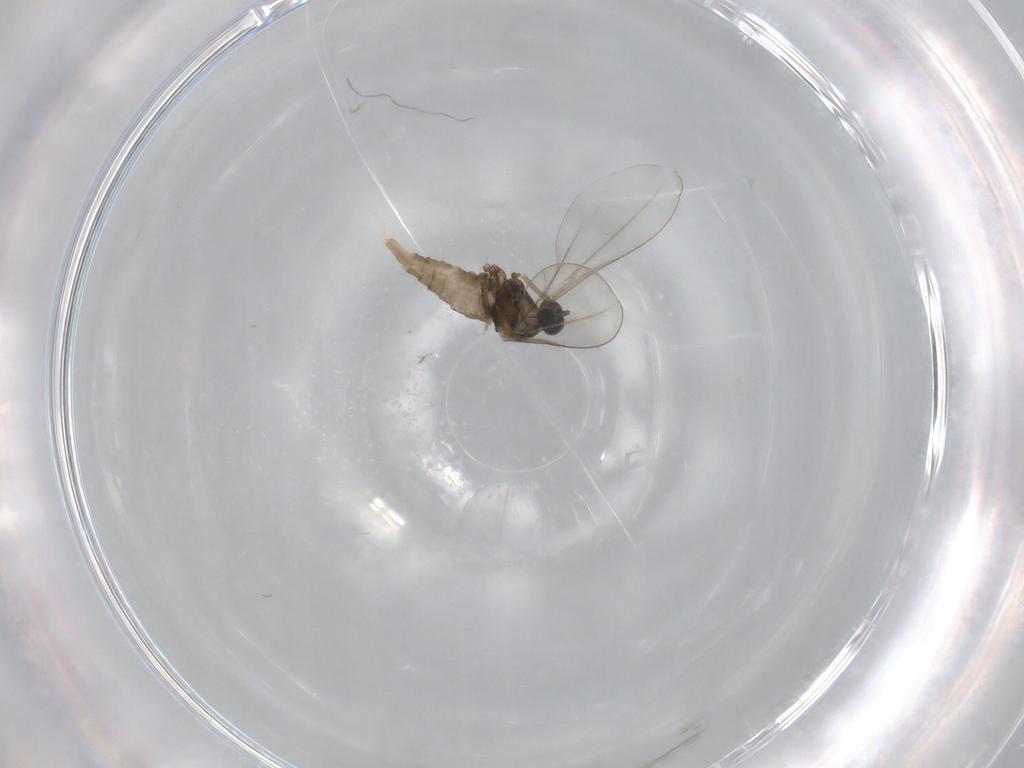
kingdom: Animalia
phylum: Arthropoda
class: Insecta
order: Diptera
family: Cecidomyiidae
